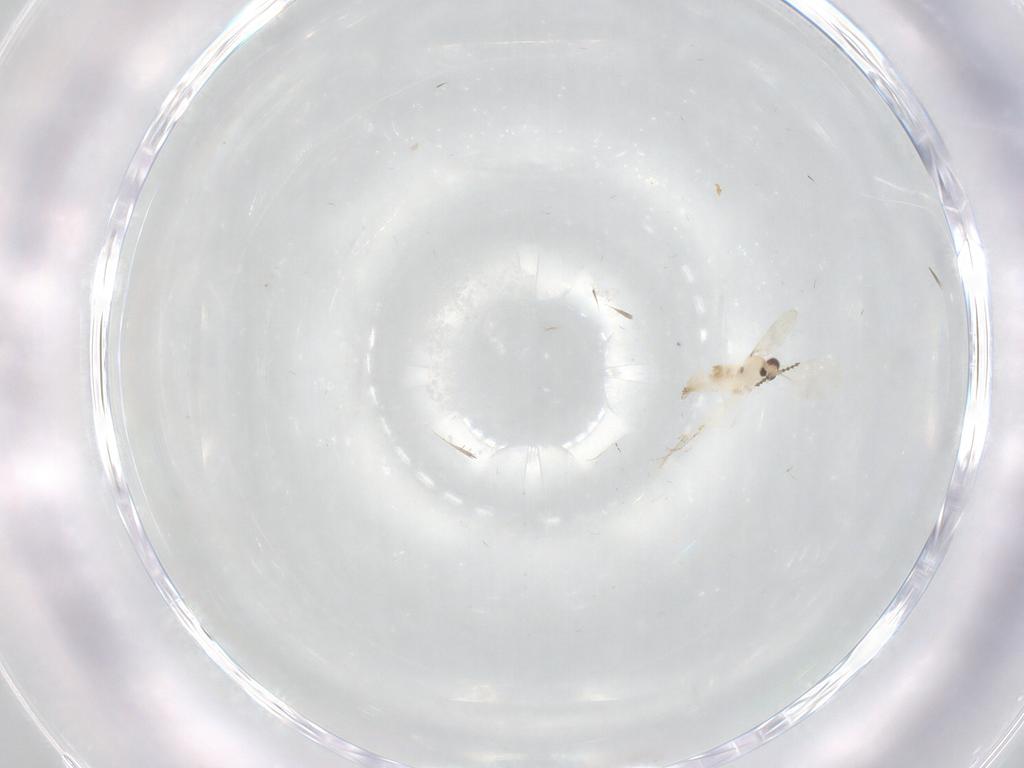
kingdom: Animalia
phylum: Arthropoda
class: Insecta
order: Diptera
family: Cecidomyiidae
